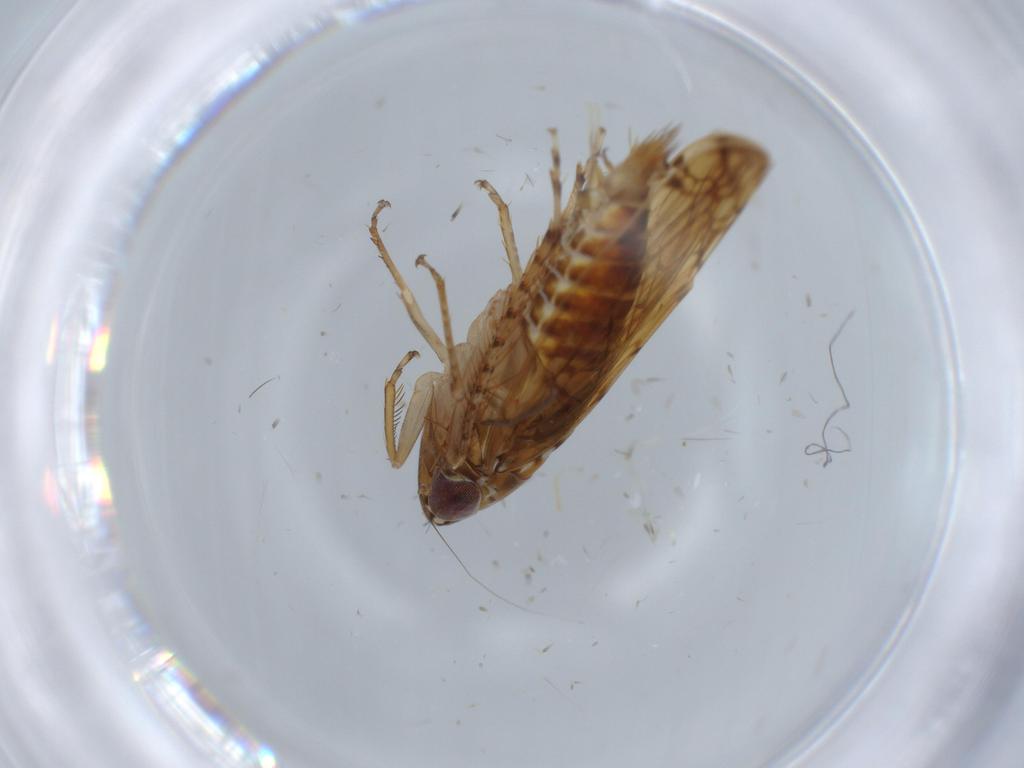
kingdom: Animalia
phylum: Arthropoda
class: Insecta
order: Hemiptera
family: Cicadellidae
